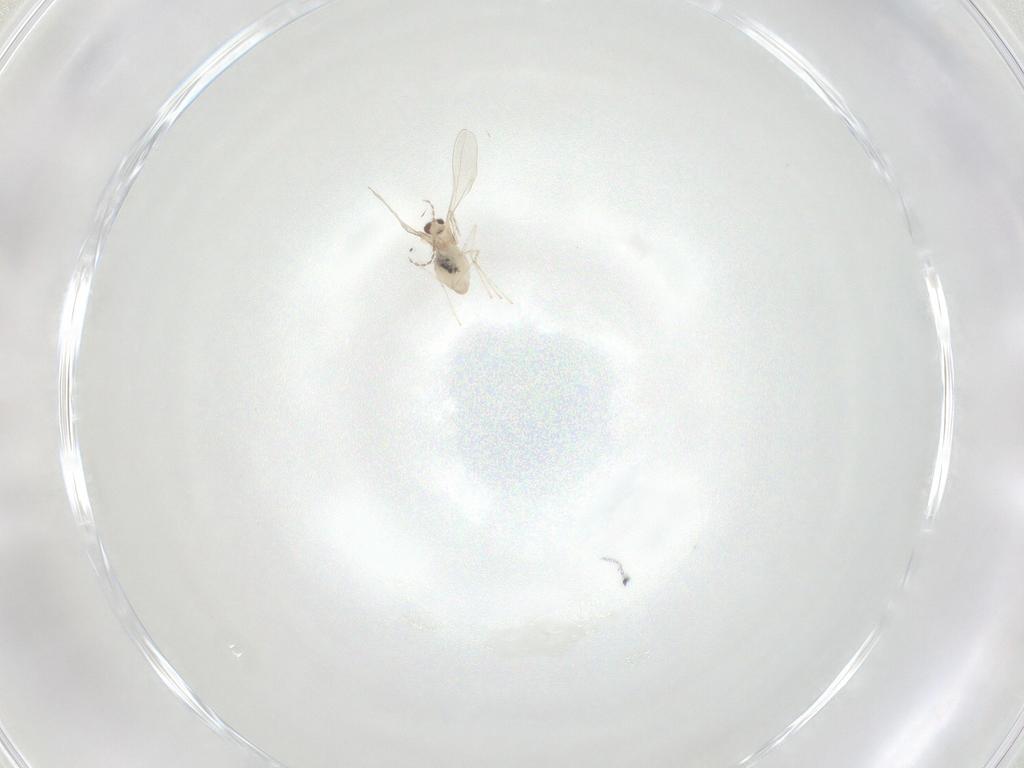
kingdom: Animalia
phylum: Arthropoda
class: Insecta
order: Diptera
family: Cecidomyiidae
